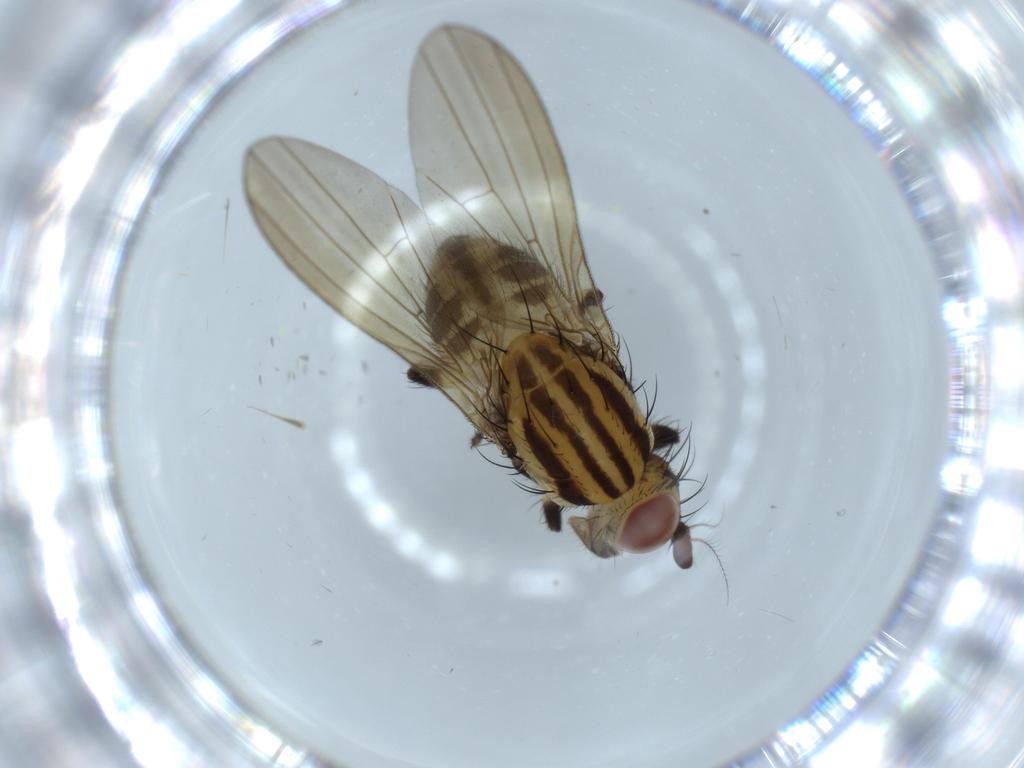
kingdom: Animalia
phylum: Arthropoda
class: Insecta
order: Diptera
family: Lauxaniidae
